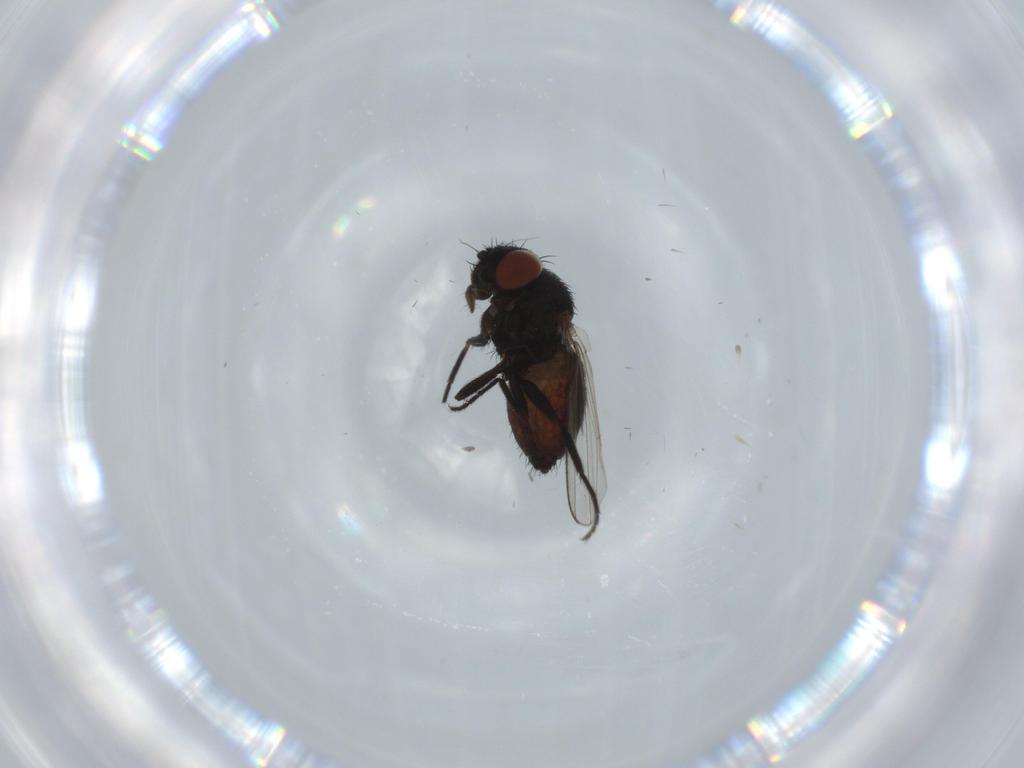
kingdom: Animalia
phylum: Arthropoda
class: Insecta
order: Diptera
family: Milichiidae
